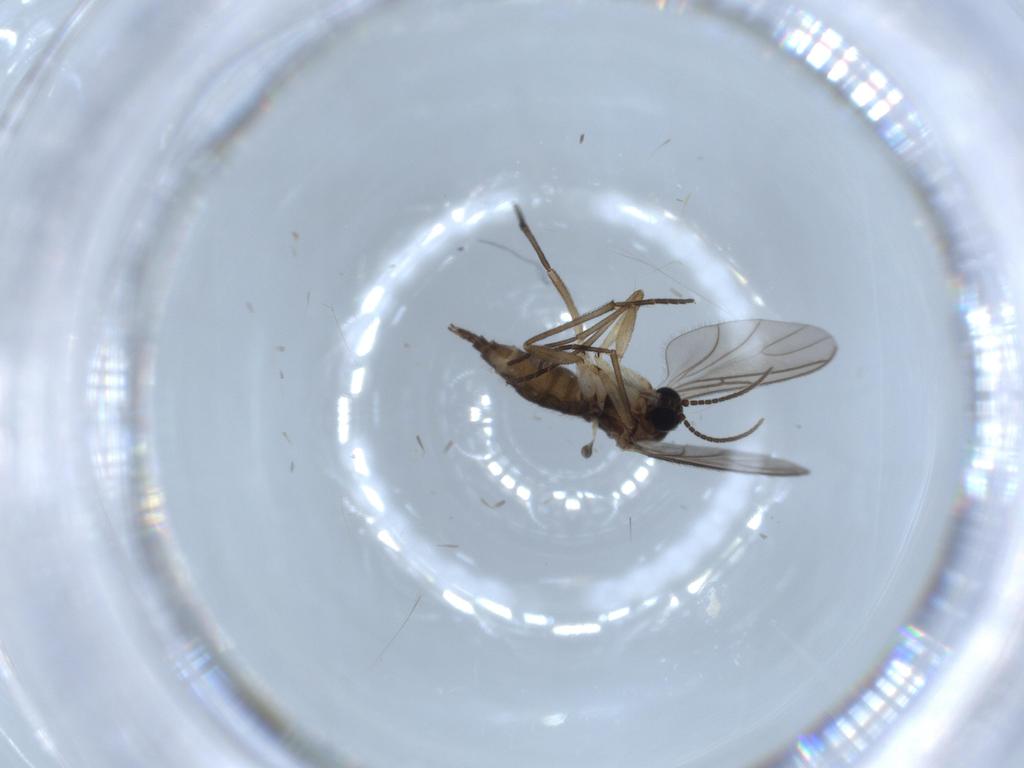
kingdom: Animalia
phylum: Arthropoda
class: Insecta
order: Diptera
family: Sciaridae
